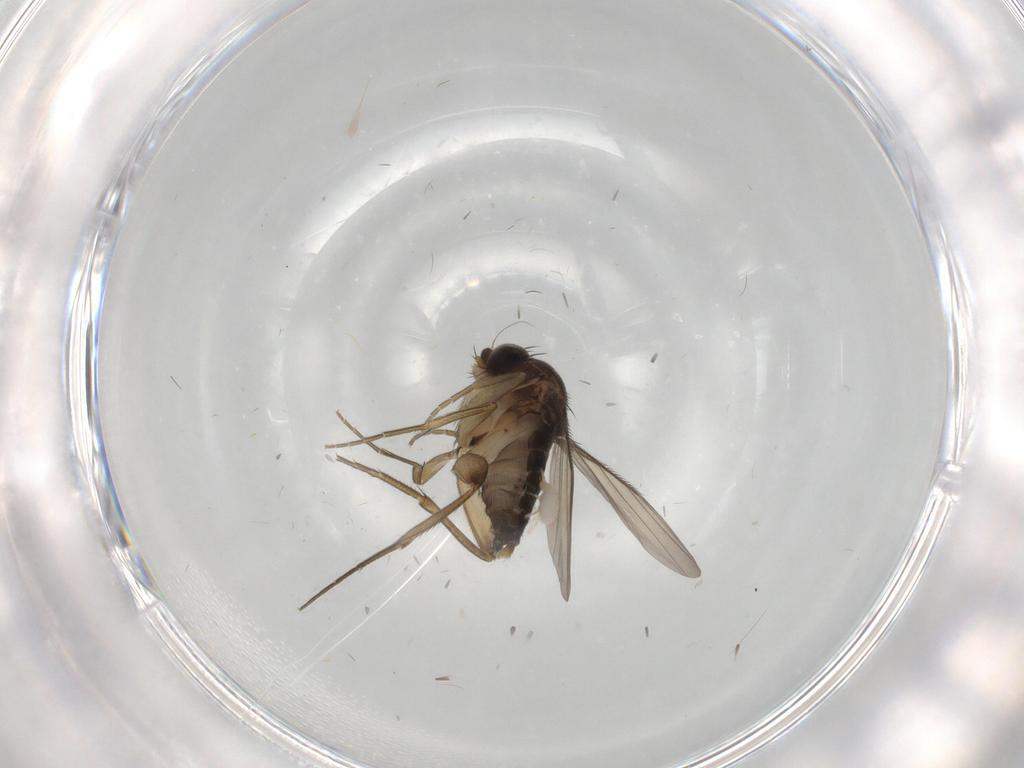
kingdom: Animalia
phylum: Arthropoda
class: Insecta
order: Diptera
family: Phoridae
